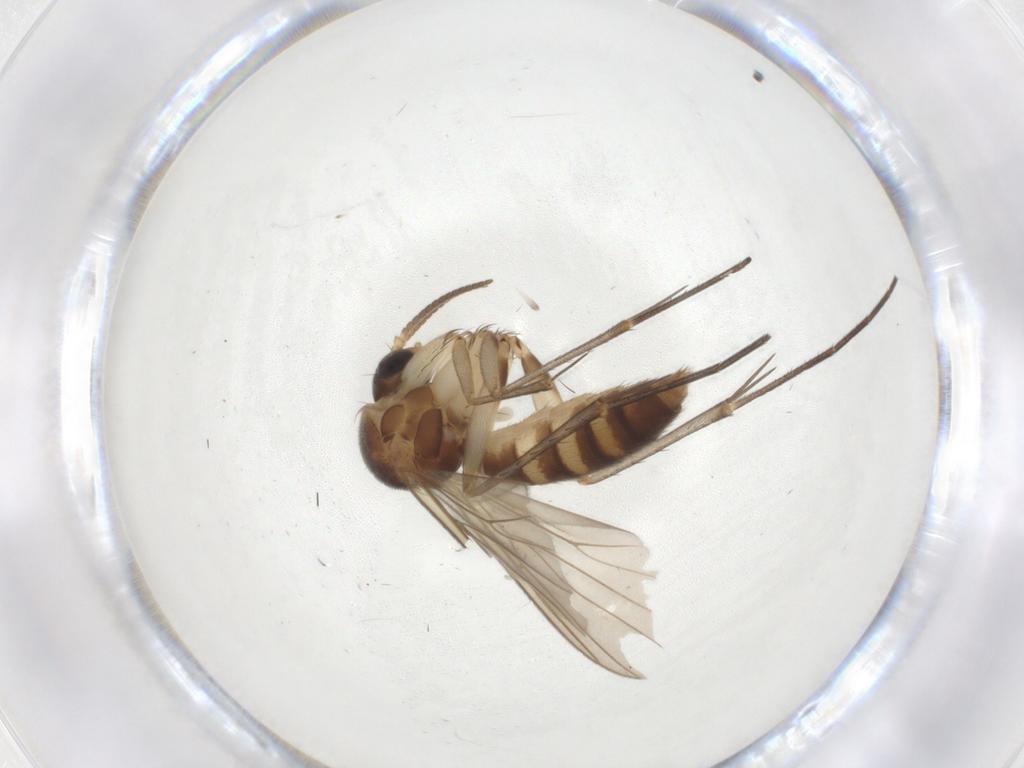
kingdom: Animalia
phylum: Arthropoda
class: Insecta
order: Diptera
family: Mycetophilidae
